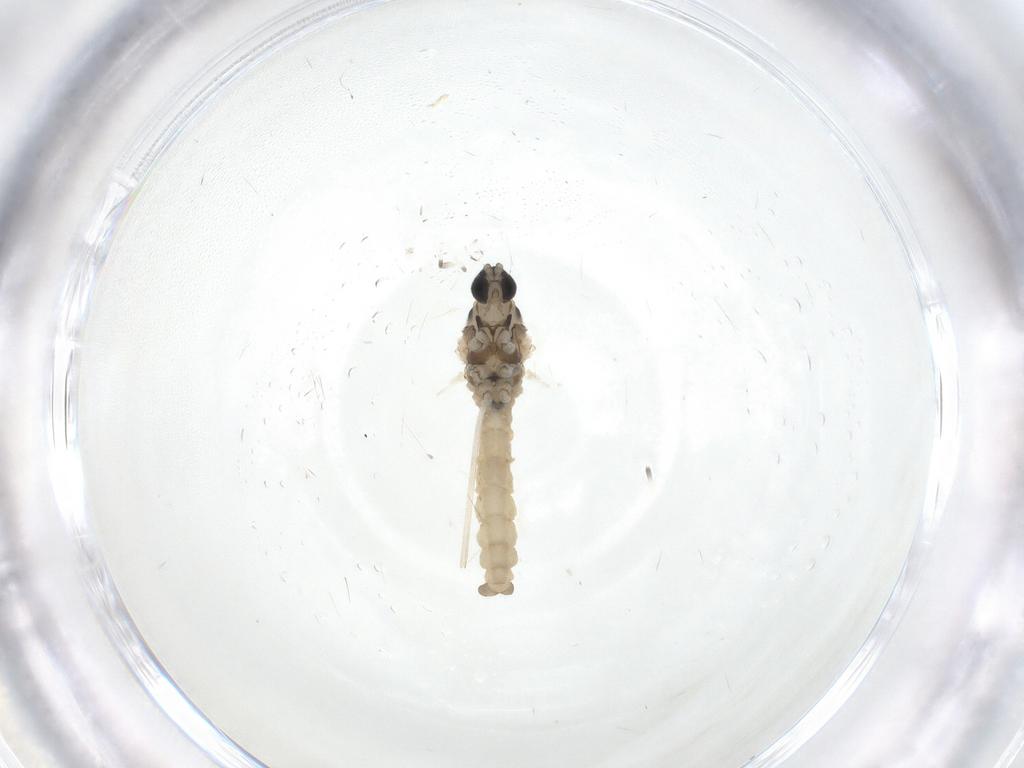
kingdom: Animalia
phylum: Arthropoda
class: Insecta
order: Diptera
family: Cecidomyiidae
